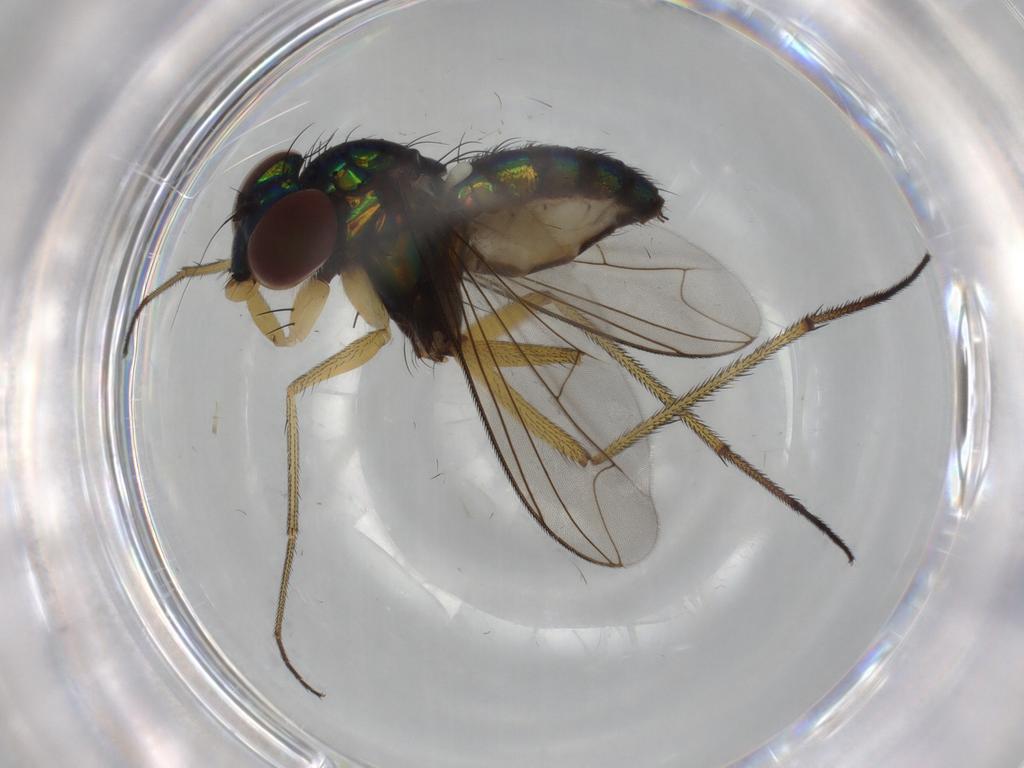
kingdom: Animalia
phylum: Arthropoda
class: Insecta
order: Diptera
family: Dolichopodidae
